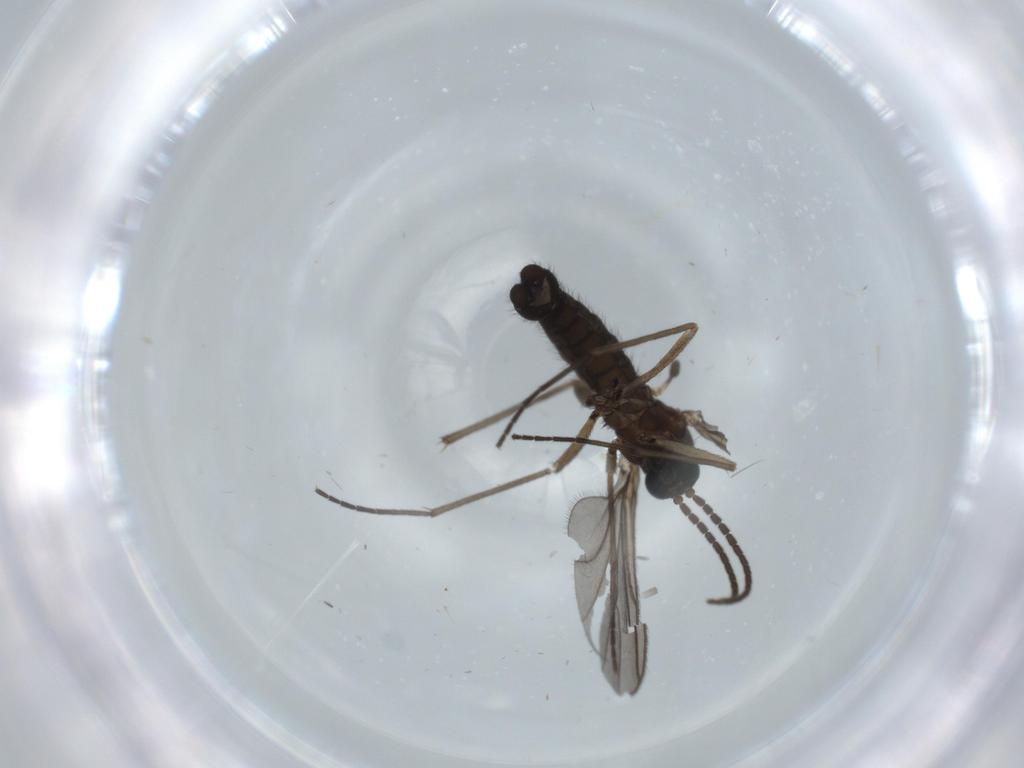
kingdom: Animalia
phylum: Arthropoda
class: Insecta
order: Diptera
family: Sciaridae
